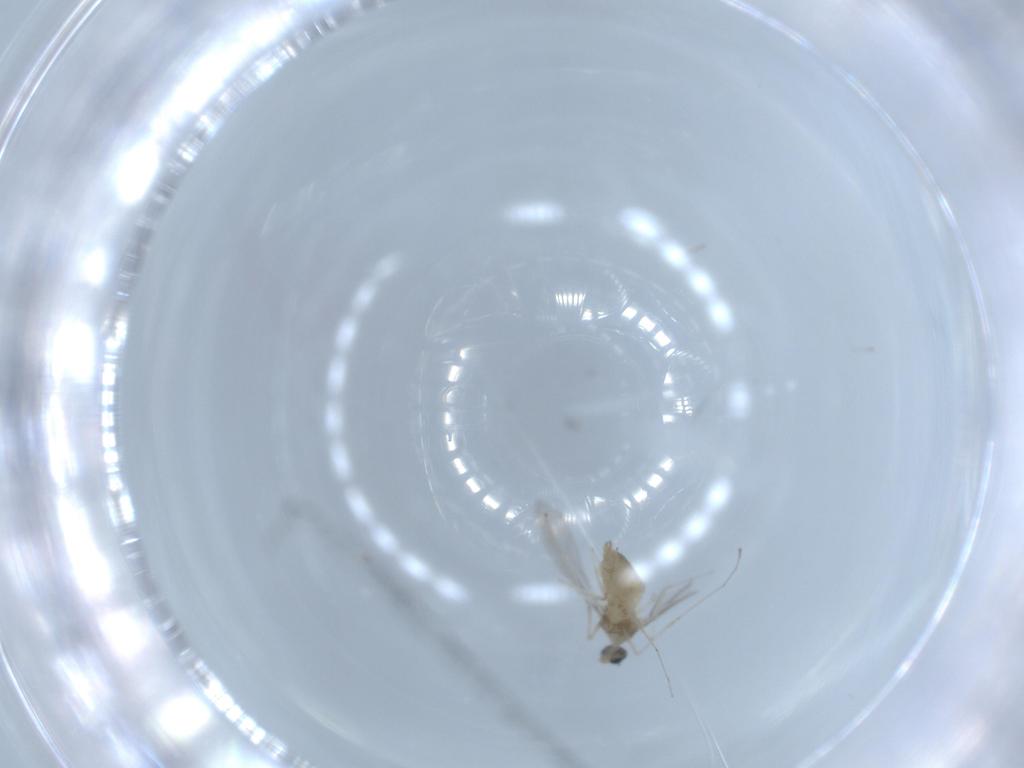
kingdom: Animalia
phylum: Arthropoda
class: Insecta
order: Diptera
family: Cecidomyiidae
